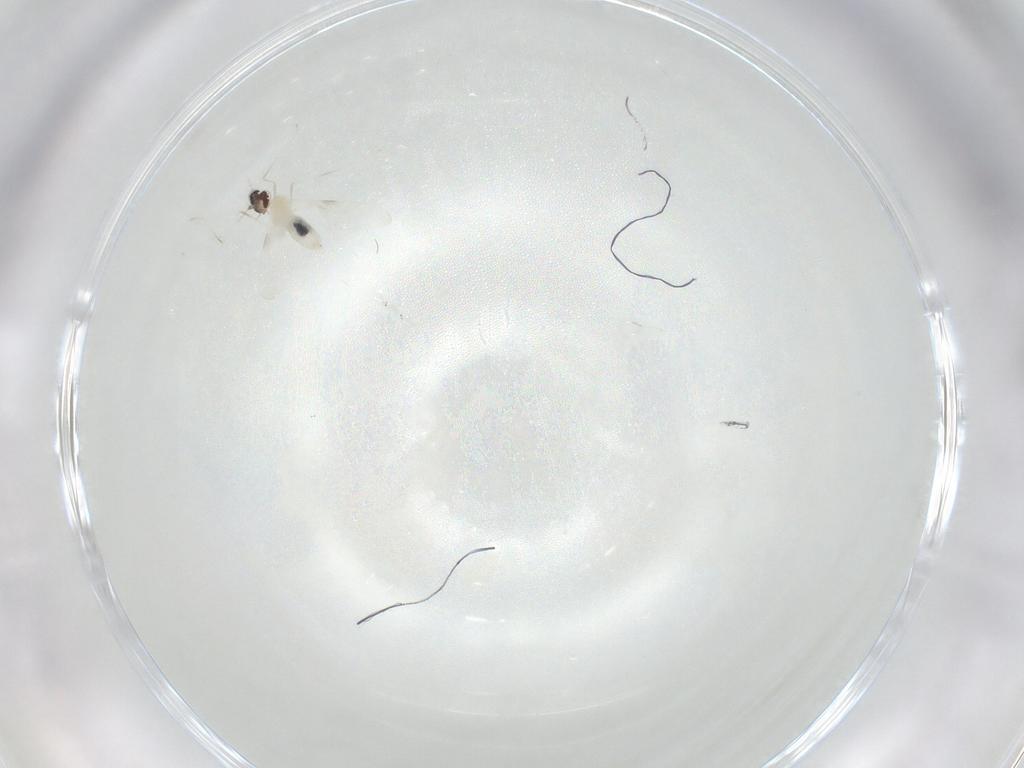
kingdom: Animalia
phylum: Arthropoda
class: Insecta
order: Diptera
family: Cecidomyiidae
